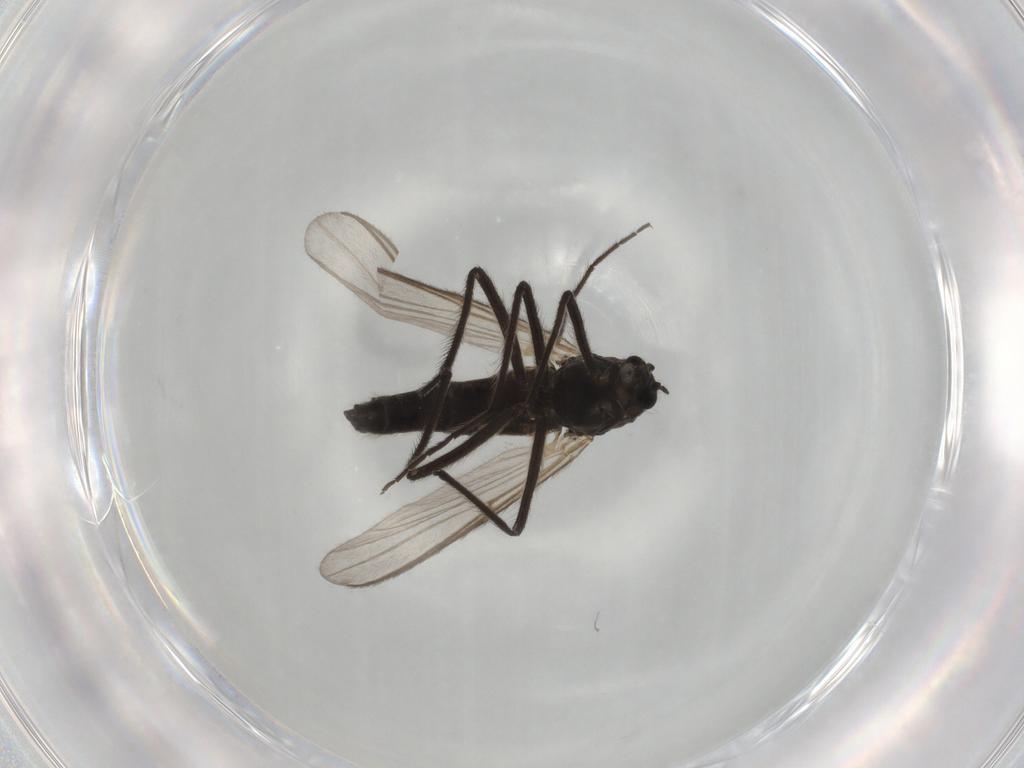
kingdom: Animalia
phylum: Arthropoda
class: Insecta
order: Diptera
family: Chironomidae
